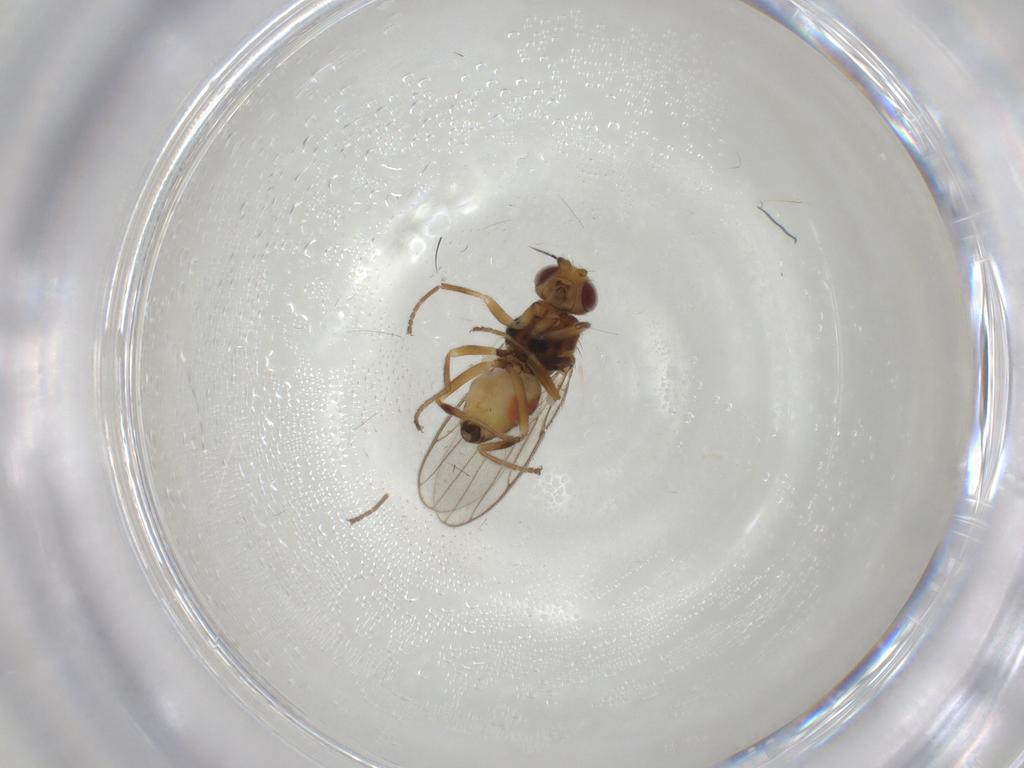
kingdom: Animalia
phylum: Arthropoda
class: Insecta
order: Diptera
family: Chloropidae
